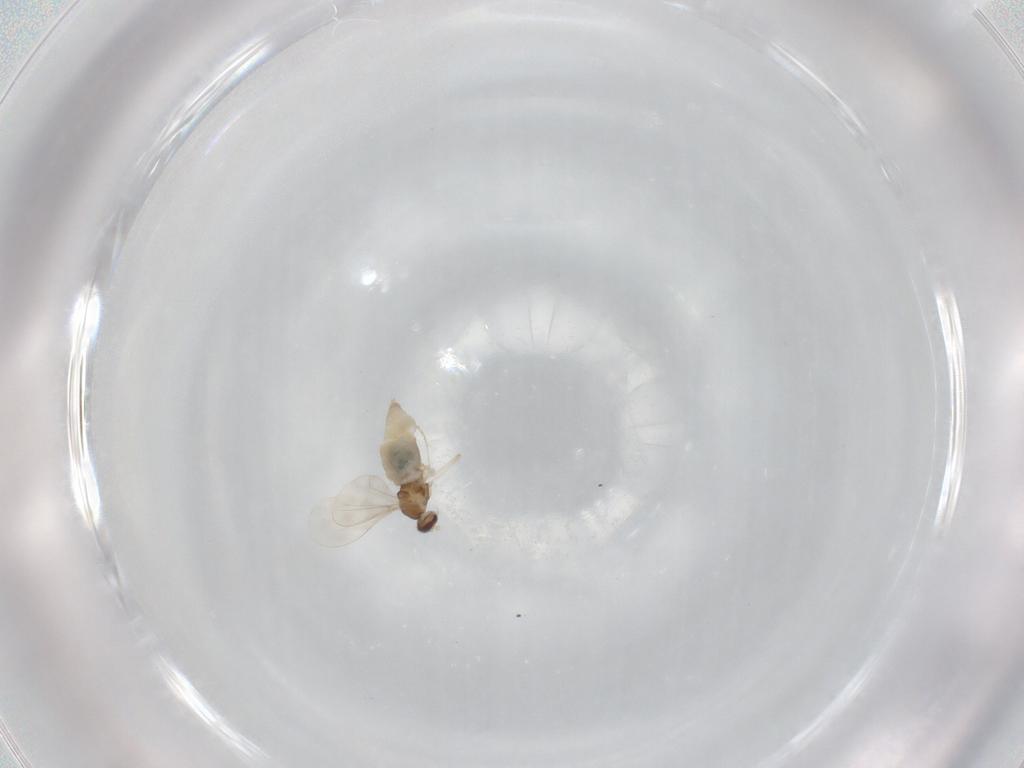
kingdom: Animalia
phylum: Arthropoda
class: Insecta
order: Diptera
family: Cecidomyiidae
